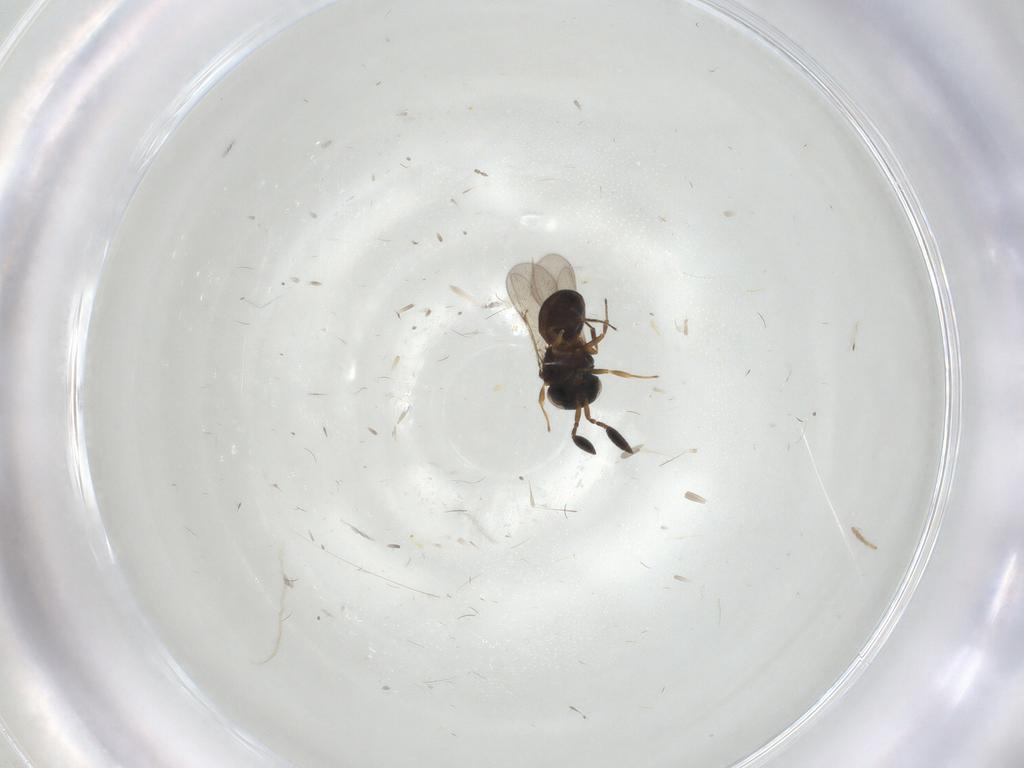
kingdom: Animalia
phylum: Arthropoda
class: Insecta
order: Hymenoptera
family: Scelionidae
